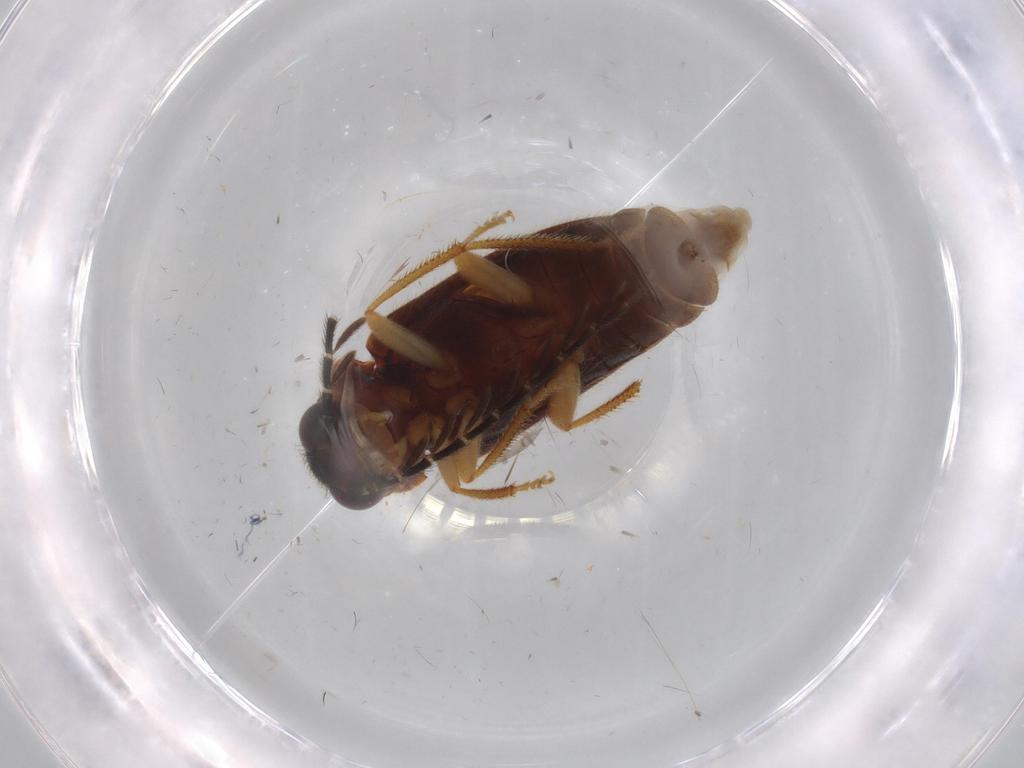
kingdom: Animalia
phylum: Arthropoda
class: Insecta
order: Coleoptera
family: Ptilodactylidae
